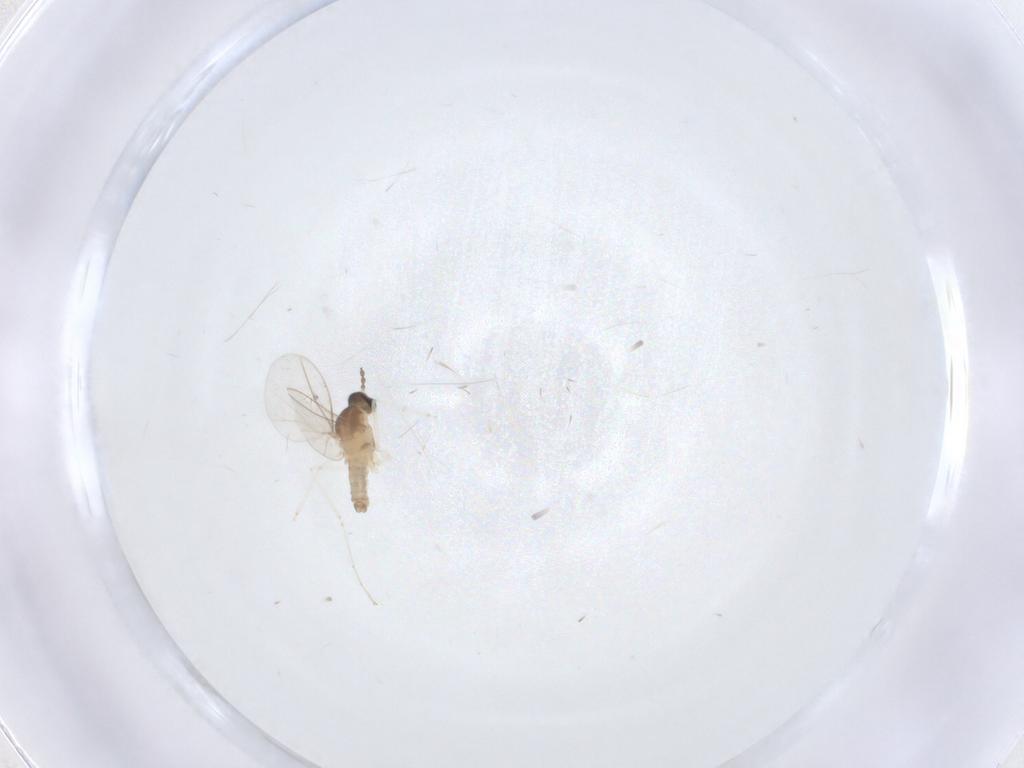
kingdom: Animalia
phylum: Arthropoda
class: Insecta
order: Diptera
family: Cecidomyiidae
